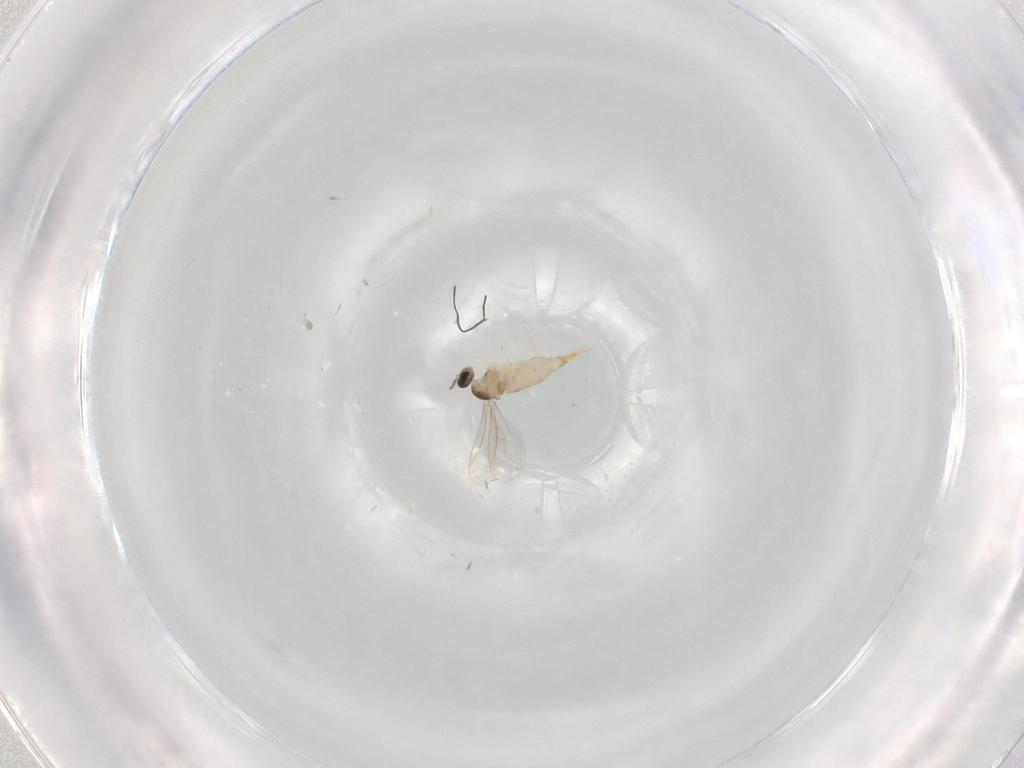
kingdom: Animalia
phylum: Arthropoda
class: Insecta
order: Diptera
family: Cecidomyiidae
